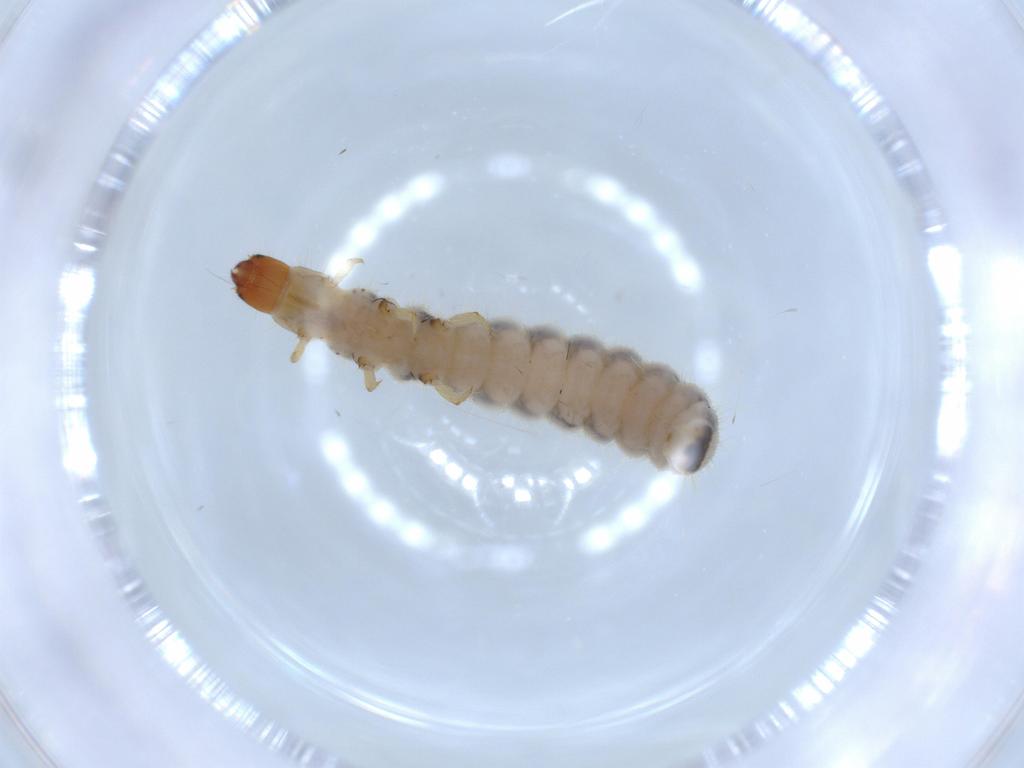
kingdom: Animalia
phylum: Arthropoda
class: Insecta
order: Coleoptera
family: Cleridae
